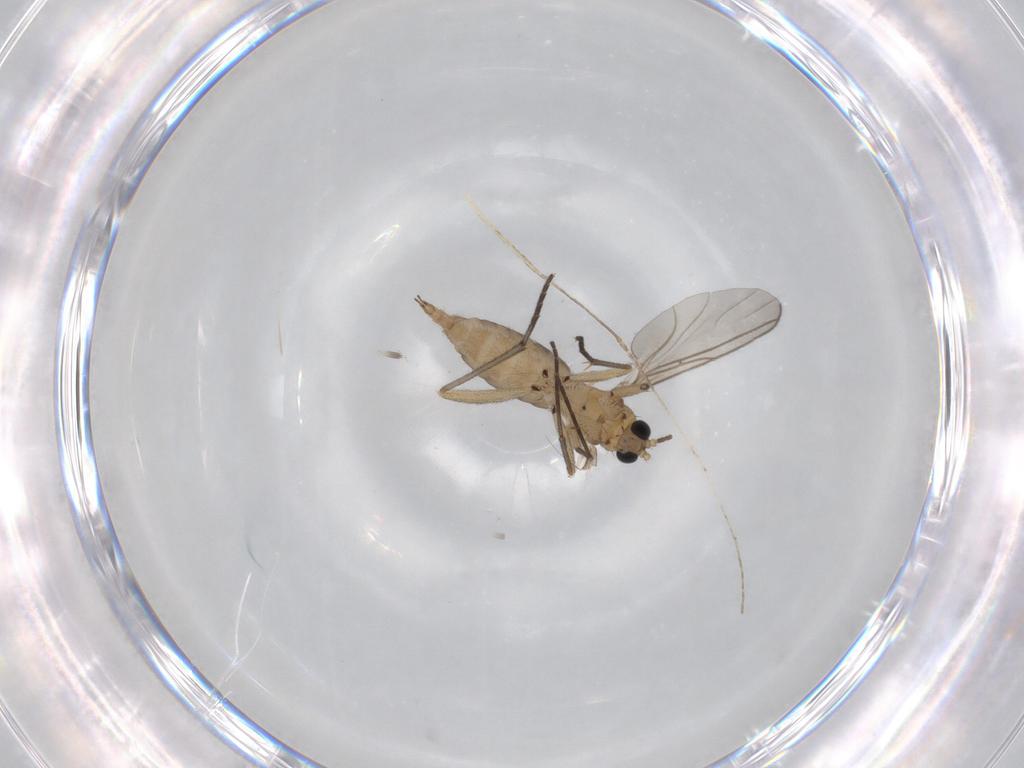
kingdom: Animalia
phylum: Arthropoda
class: Insecta
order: Diptera
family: Sciaridae
